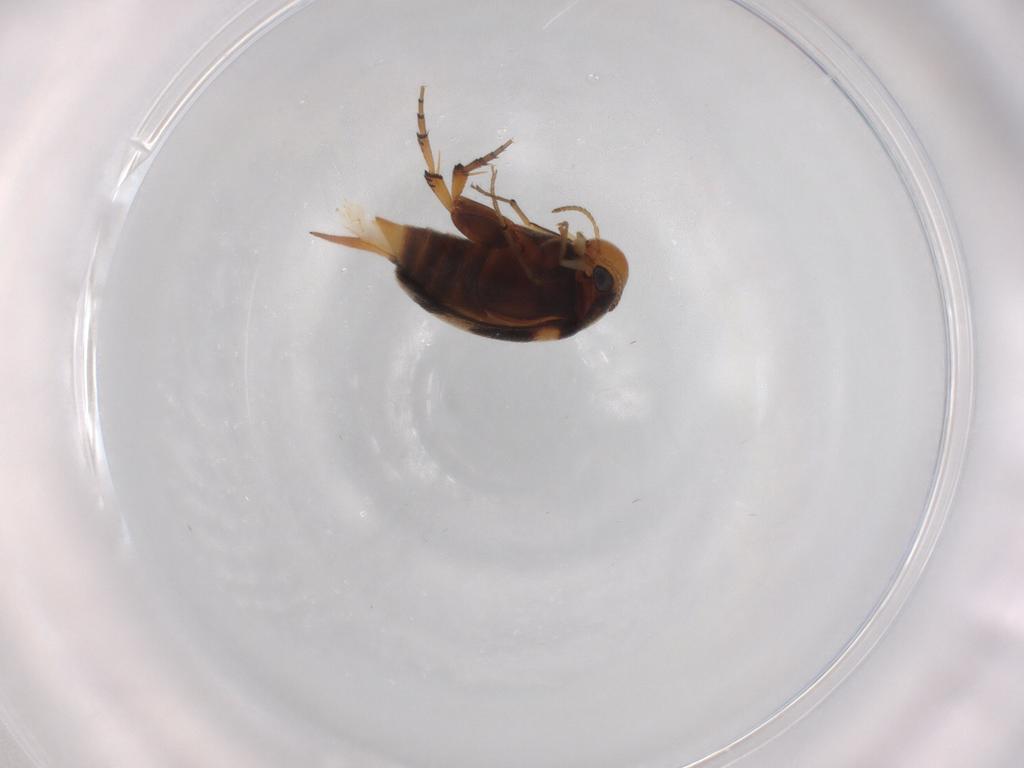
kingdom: Animalia
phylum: Arthropoda
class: Insecta
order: Coleoptera
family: Mordellidae
